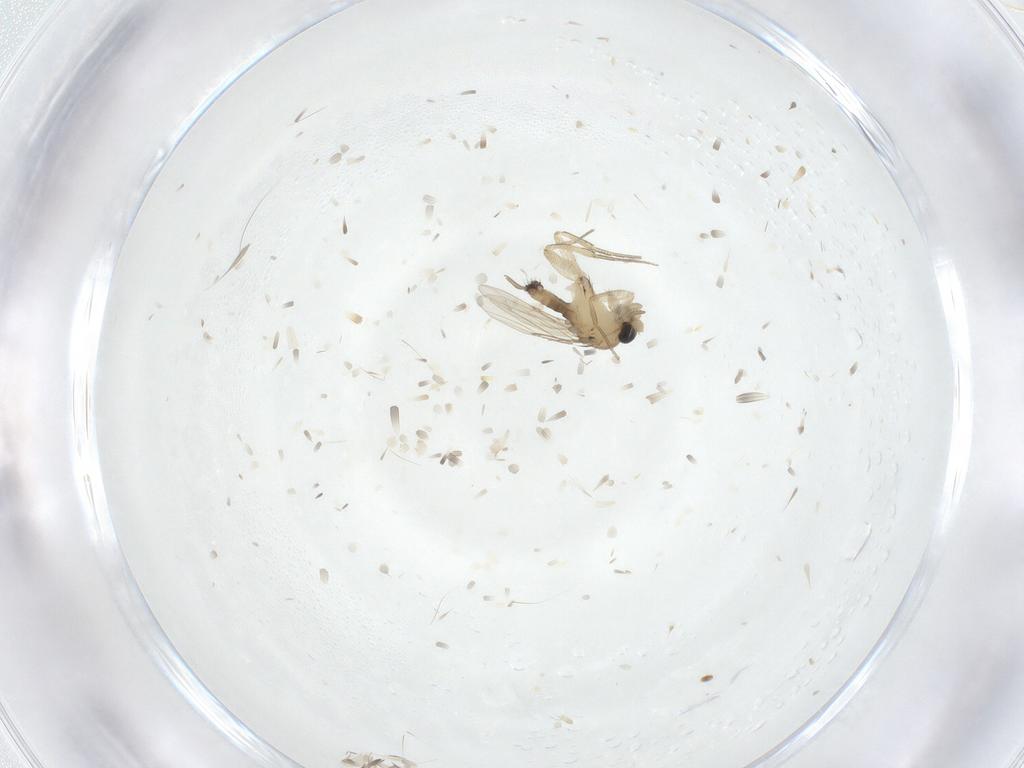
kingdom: Animalia
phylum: Arthropoda
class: Insecta
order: Diptera
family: Phoridae
